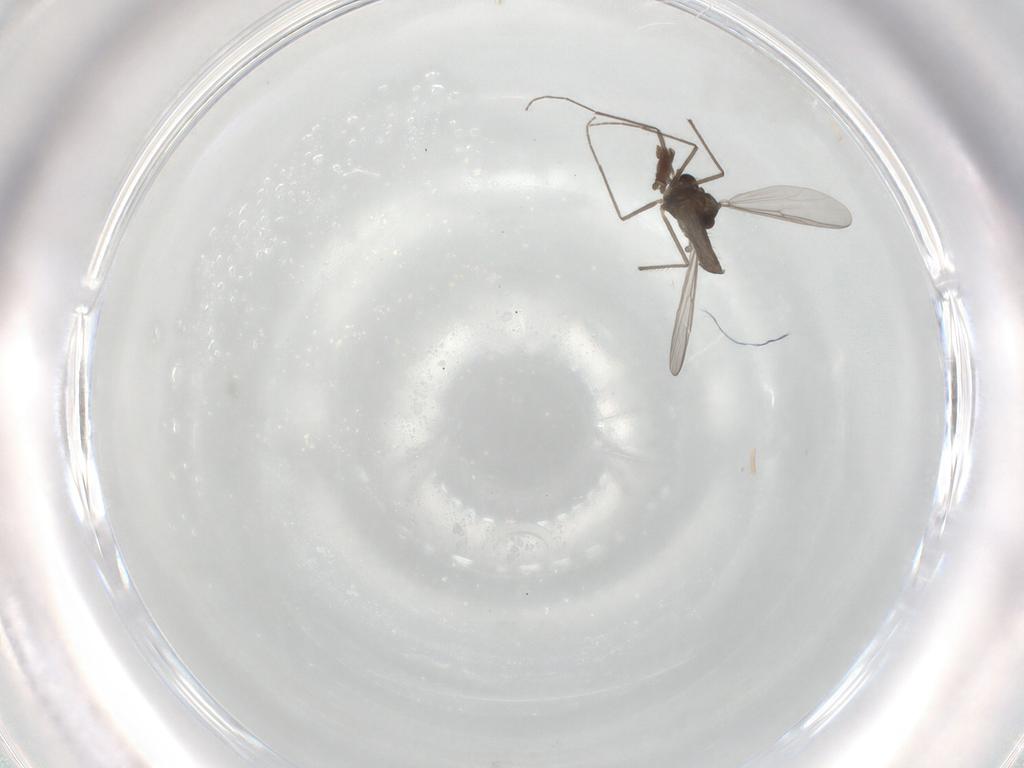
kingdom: Animalia
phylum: Arthropoda
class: Insecta
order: Diptera
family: Chironomidae
